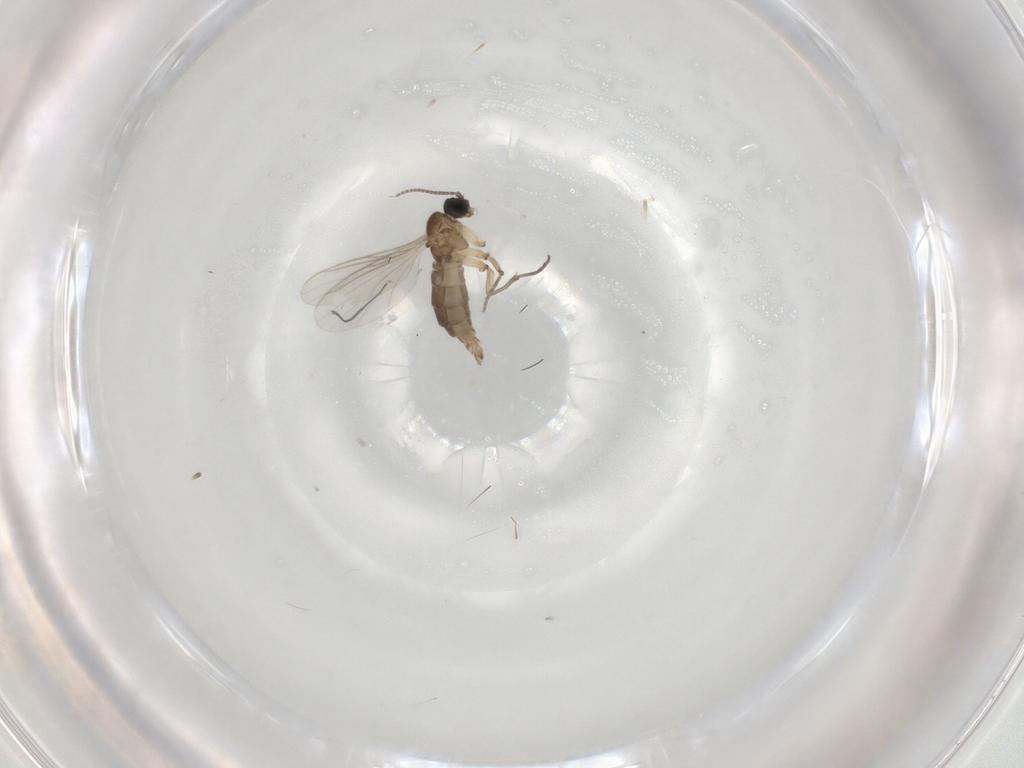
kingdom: Animalia
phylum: Arthropoda
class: Insecta
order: Diptera
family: Sciaridae
